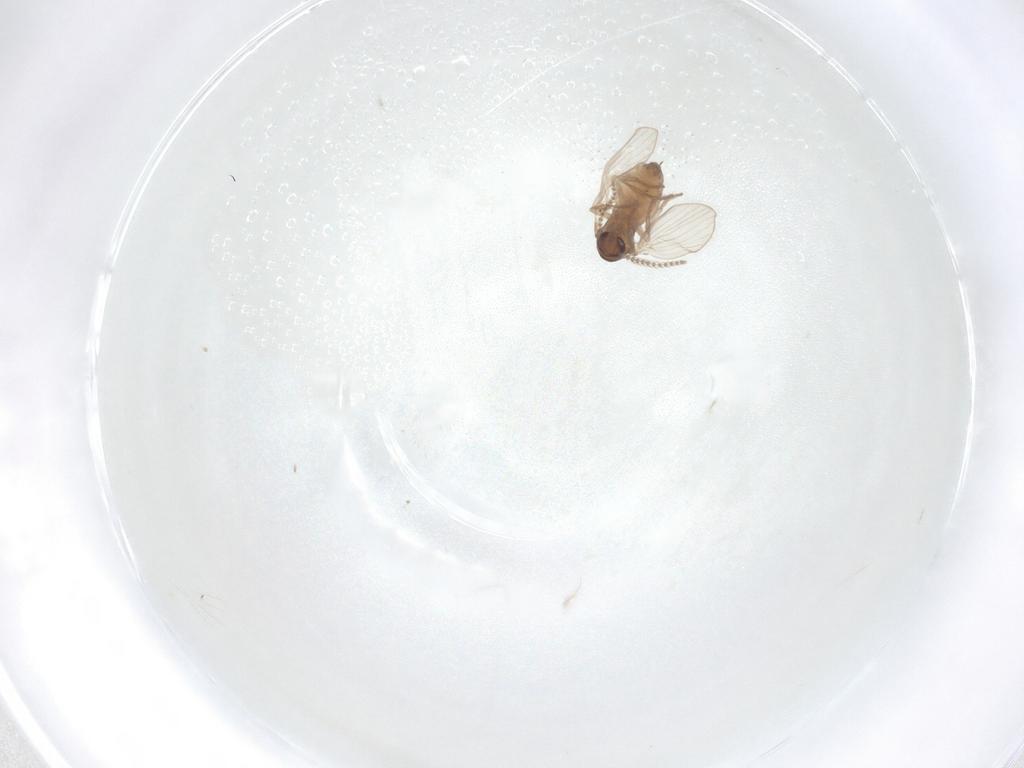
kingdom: Animalia
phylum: Arthropoda
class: Insecta
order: Diptera
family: Psychodidae
